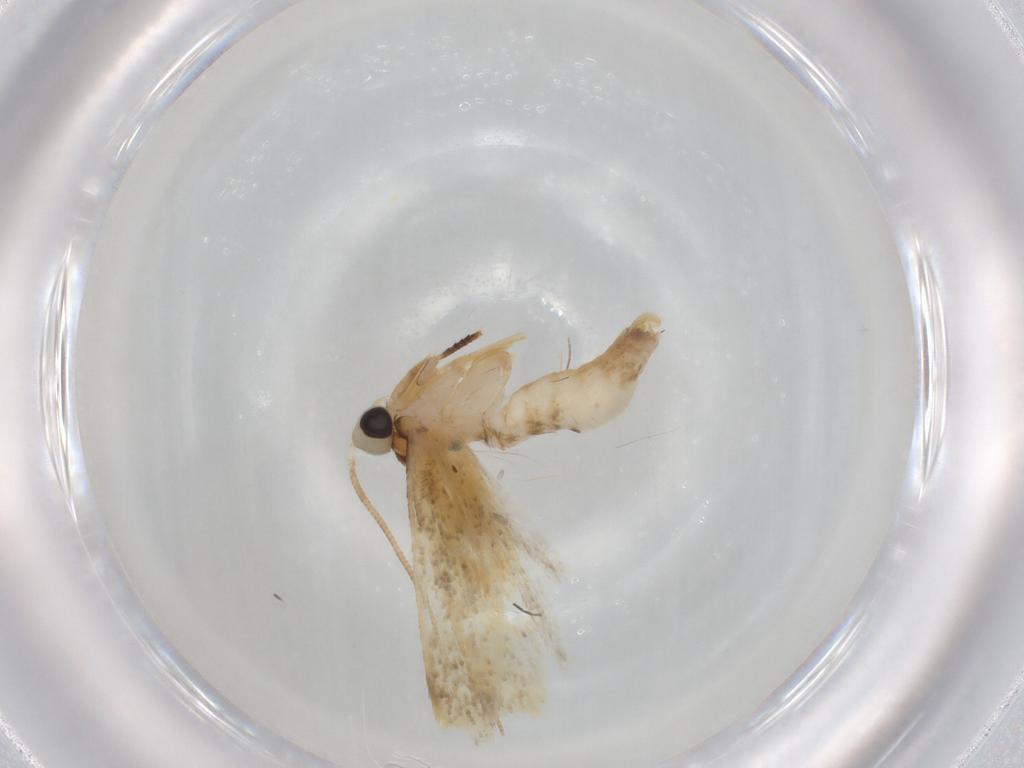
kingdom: Animalia
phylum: Arthropoda
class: Insecta
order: Lepidoptera
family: Tineidae
